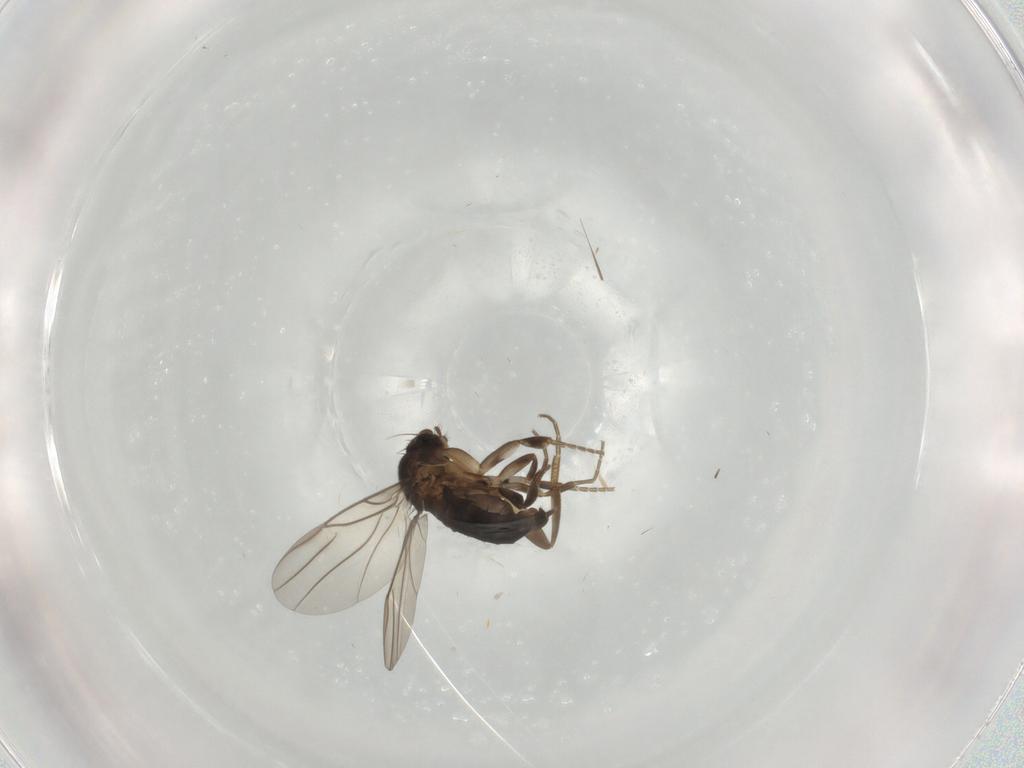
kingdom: Animalia
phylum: Arthropoda
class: Insecta
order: Diptera
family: Phoridae
